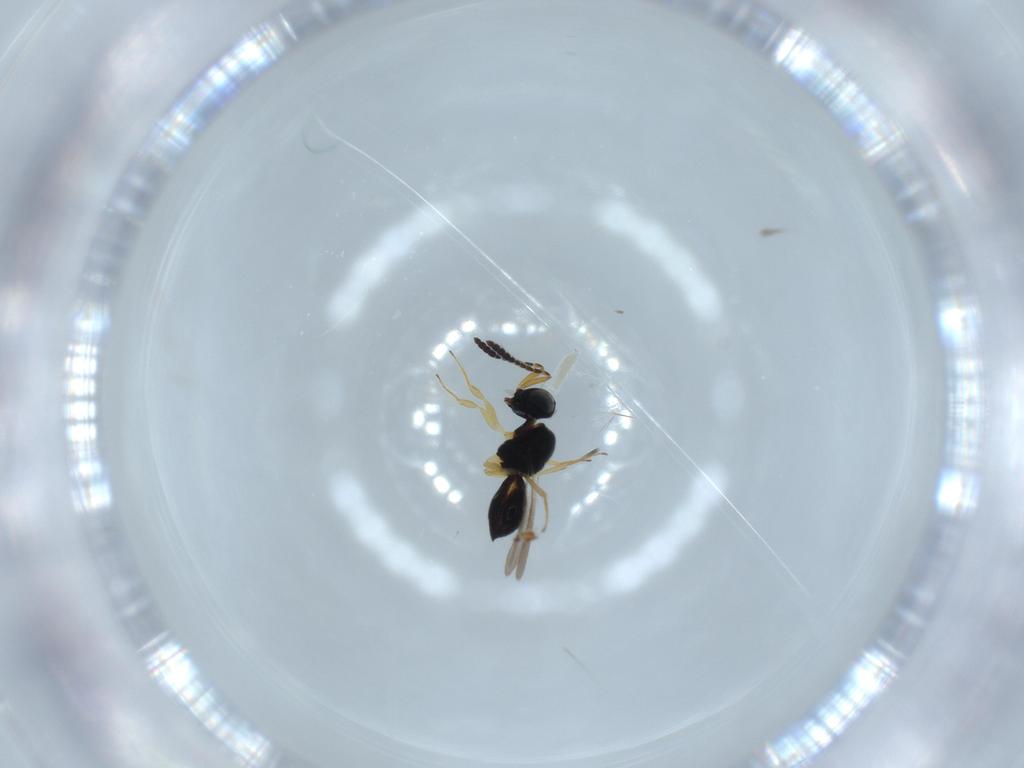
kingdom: Animalia
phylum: Arthropoda
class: Insecta
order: Hymenoptera
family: Scelionidae
